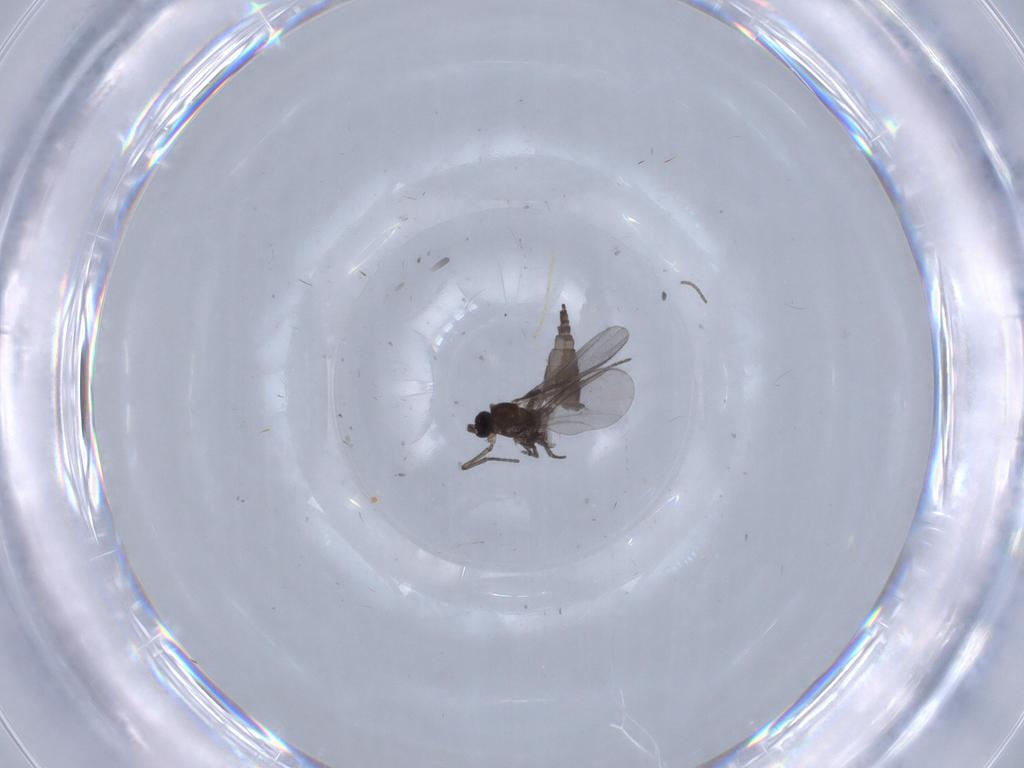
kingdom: Animalia
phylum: Arthropoda
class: Insecta
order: Diptera
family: Cecidomyiidae
